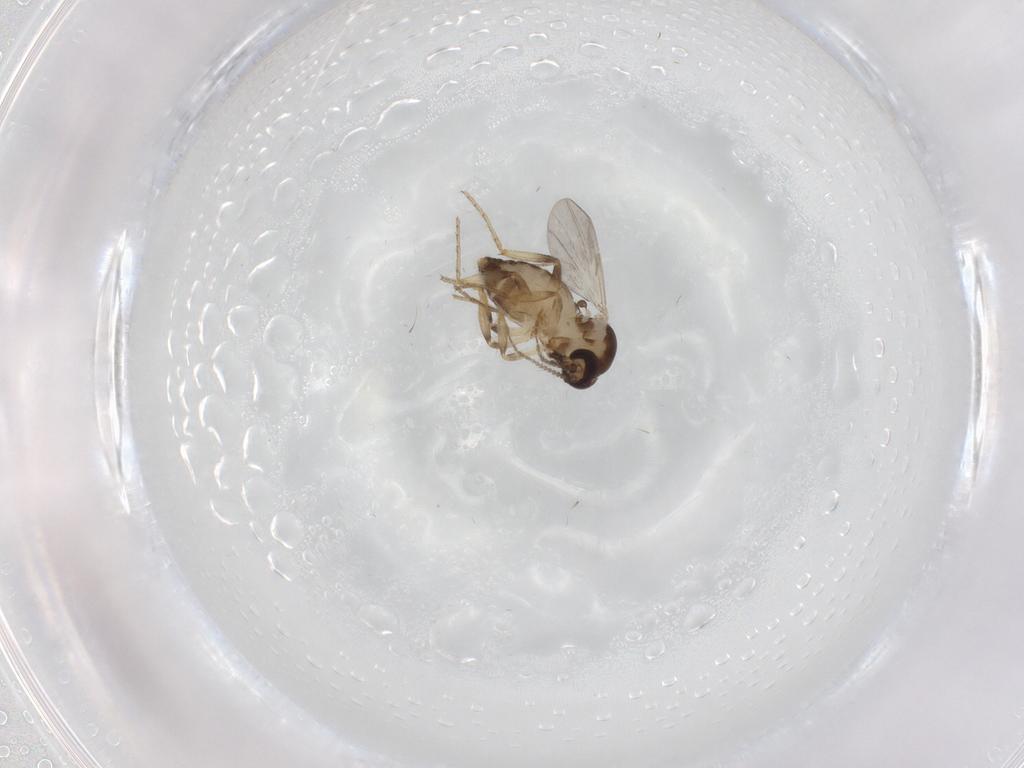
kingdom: Animalia
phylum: Arthropoda
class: Insecta
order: Diptera
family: Ceratopogonidae
